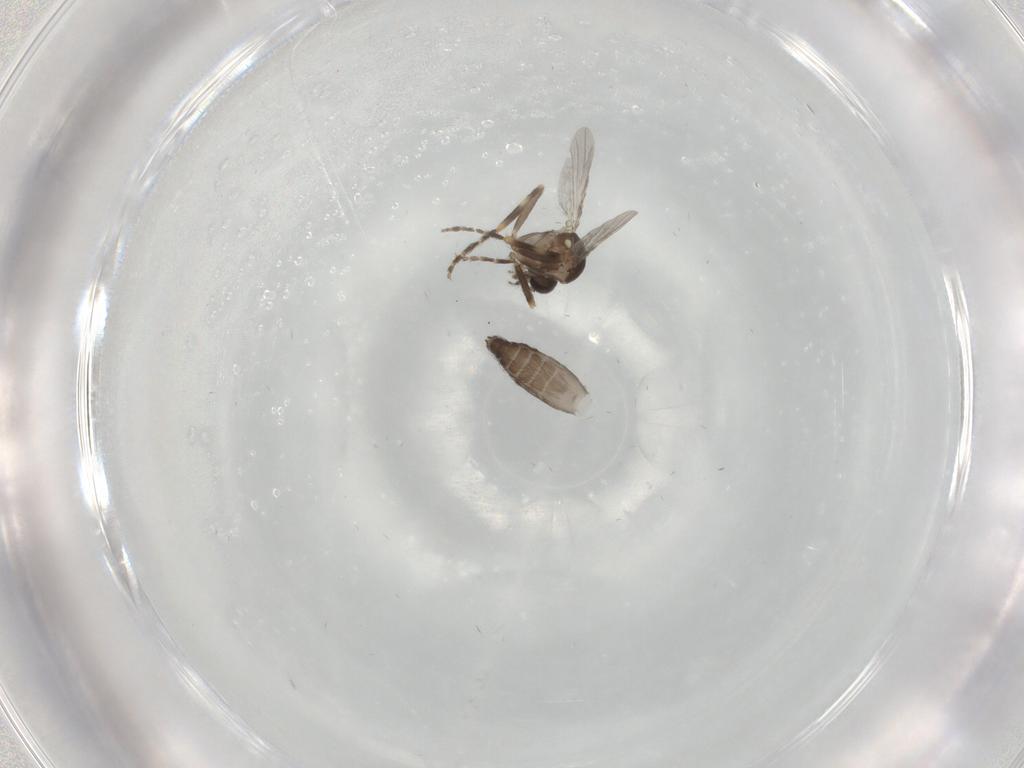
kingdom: Animalia
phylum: Arthropoda
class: Insecta
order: Diptera
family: Ceratopogonidae
